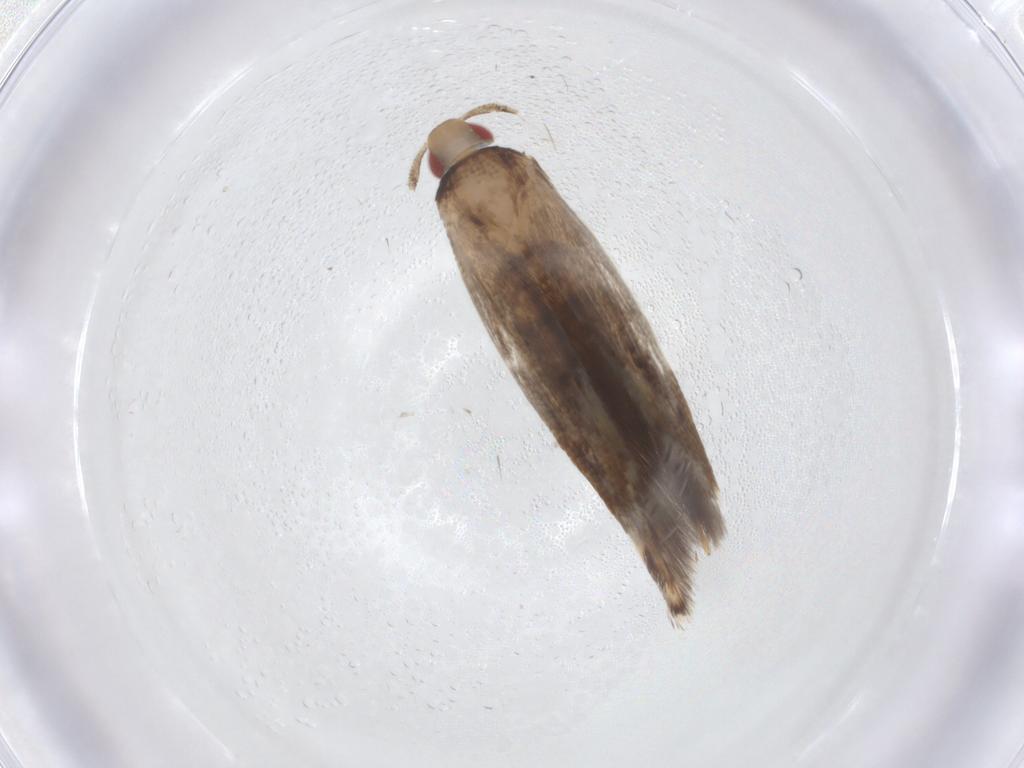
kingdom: Animalia
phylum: Arthropoda
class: Insecta
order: Lepidoptera
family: Cosmopterigidae
